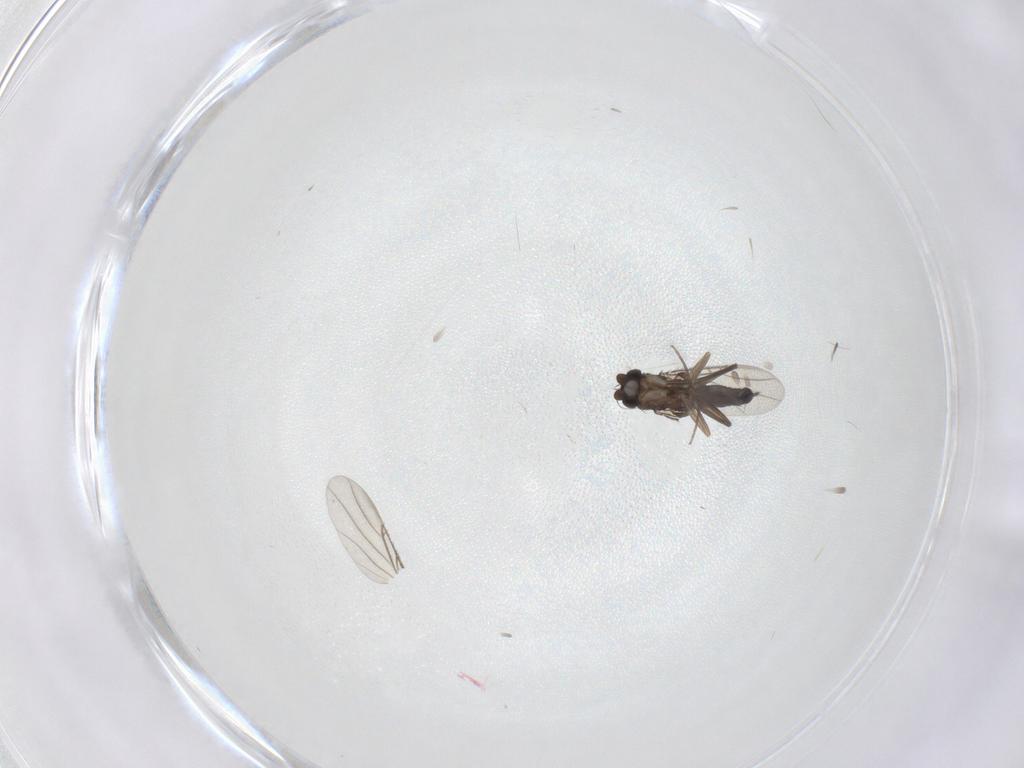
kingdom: Animalia
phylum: Arthropoda
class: Insecta
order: Diptera
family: Phoridae
